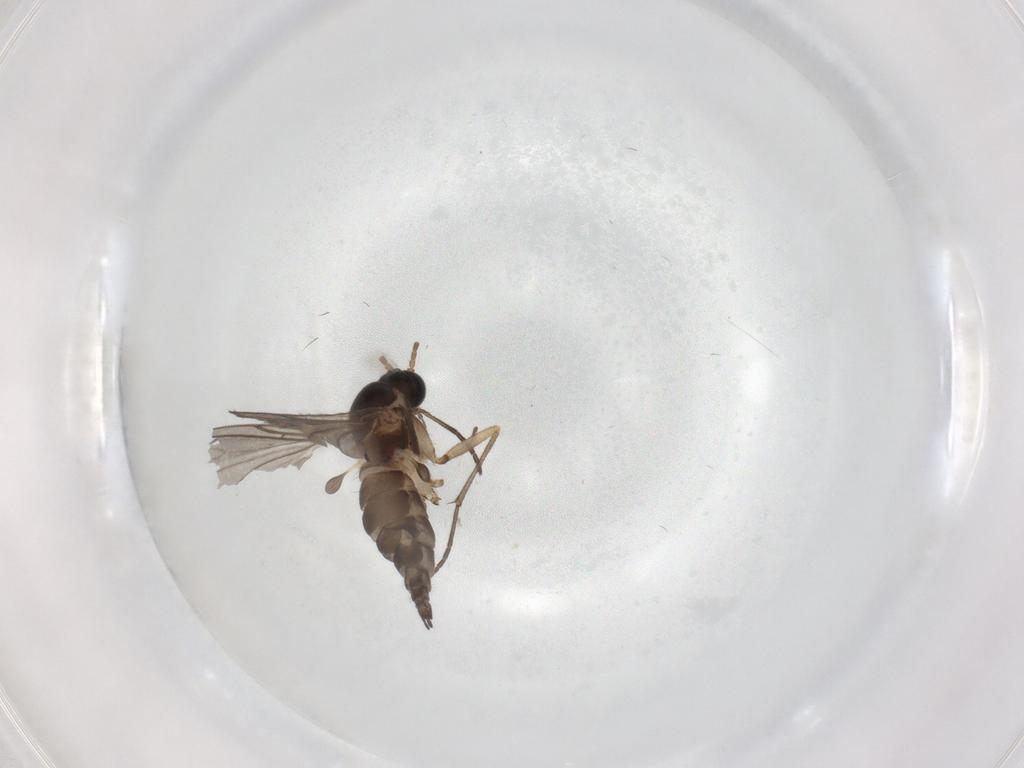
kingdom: Animalia
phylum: Arthropoda
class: Insecta
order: Diptera
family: Sciaridae
